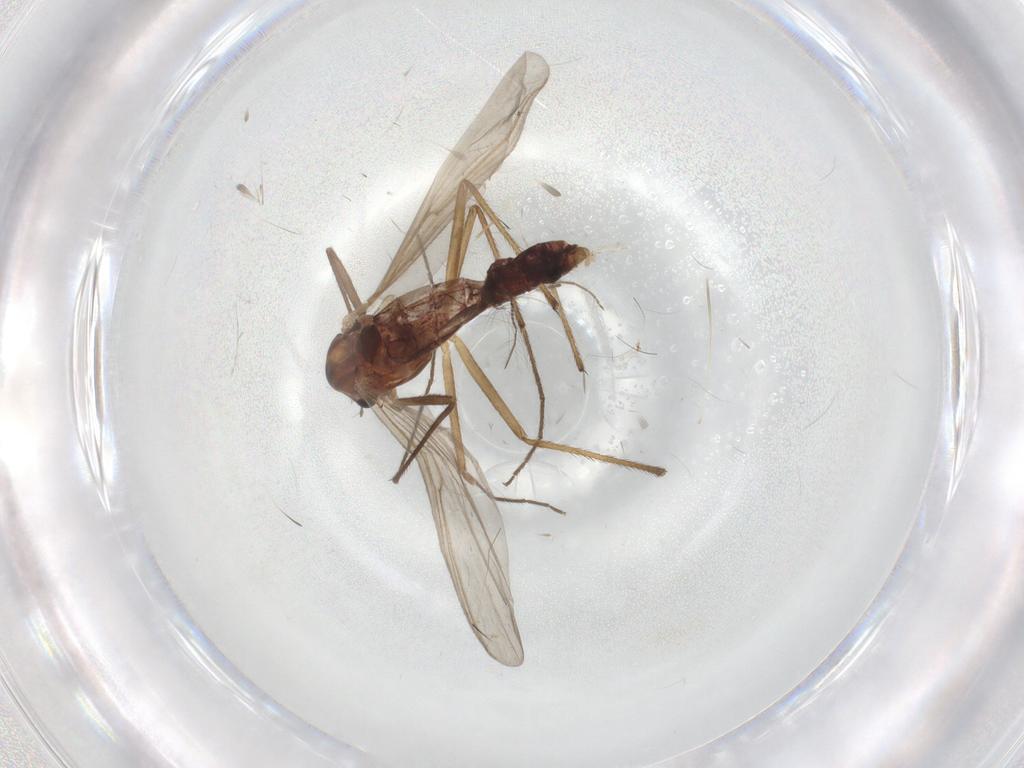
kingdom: Animalia
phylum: Arthropoda
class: Insecta
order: Diptera
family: Chironomidae
